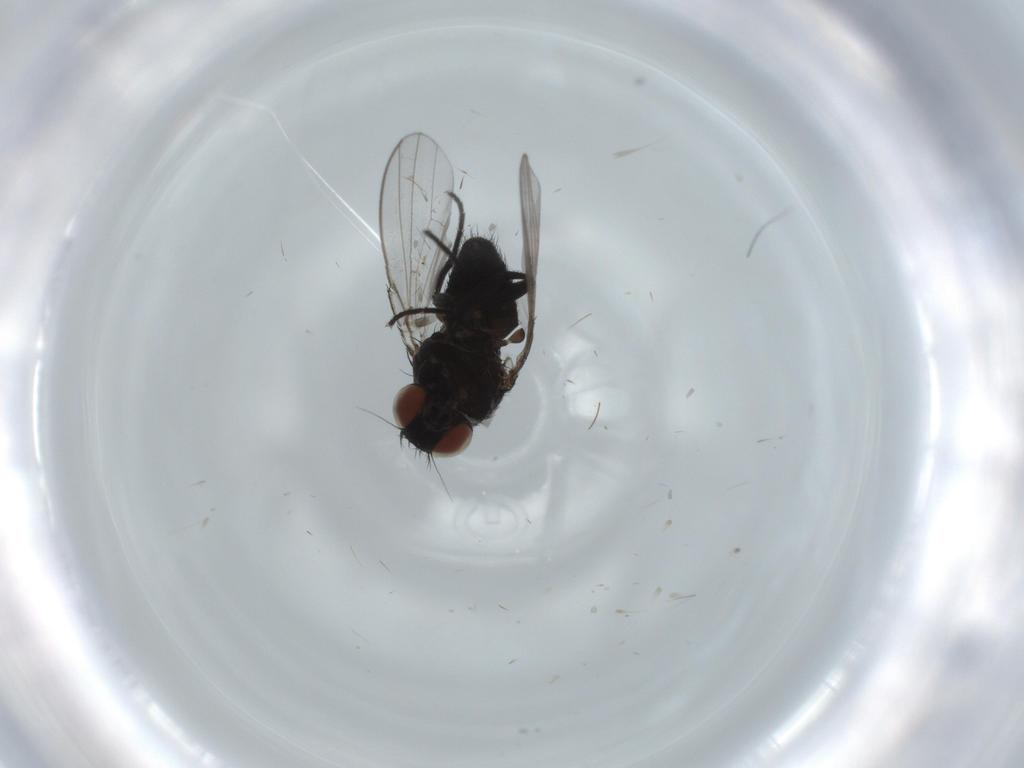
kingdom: Animalia
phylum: Arthropoda
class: Insecta
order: Diptera
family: Milichiidae
